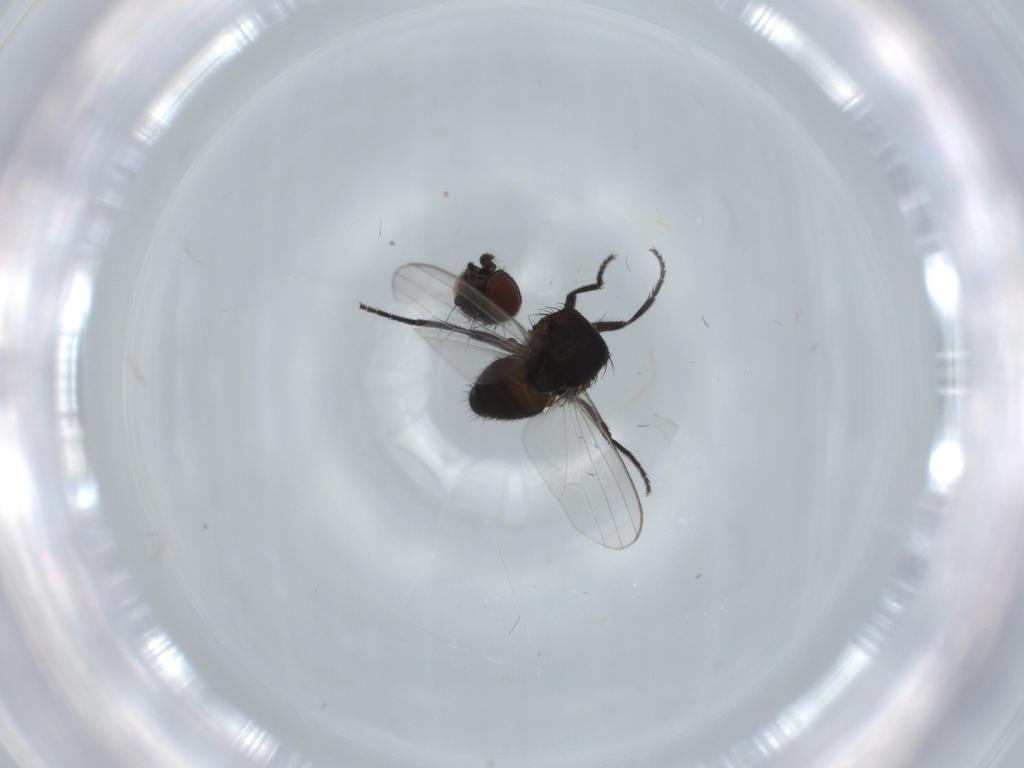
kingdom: Animalia
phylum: Arthropoda
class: Insecta
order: Diptera
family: Milichiidae
